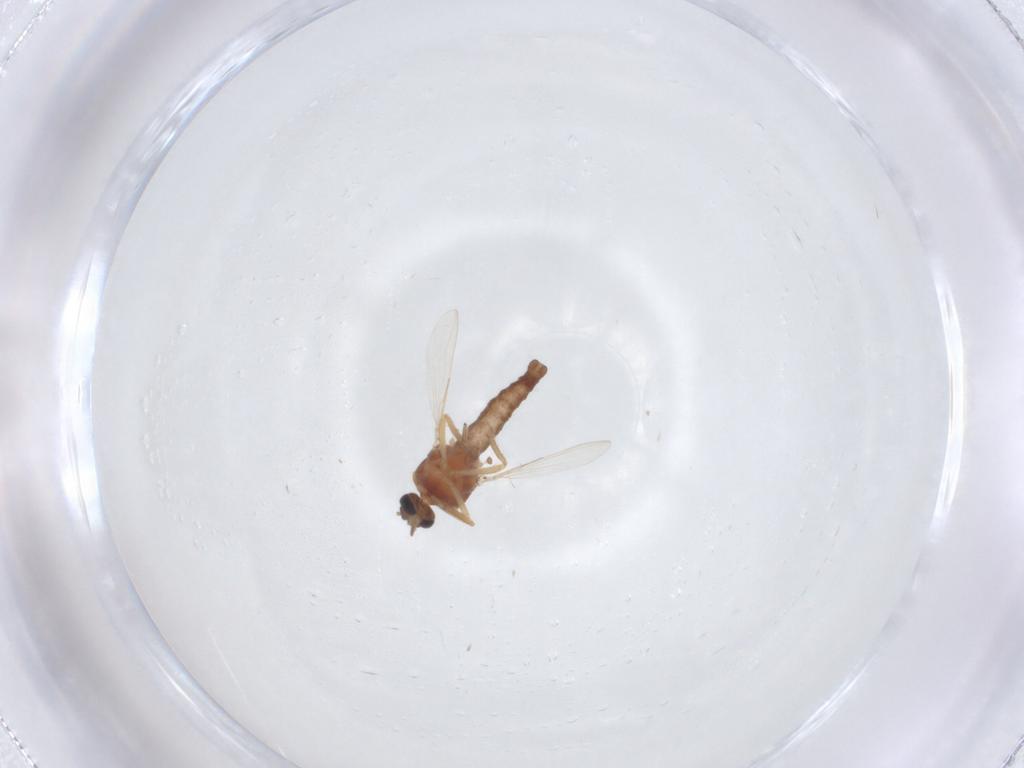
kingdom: Animalia
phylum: Arthropoda
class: Insecta
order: Diptera
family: Ceratopogonidae
